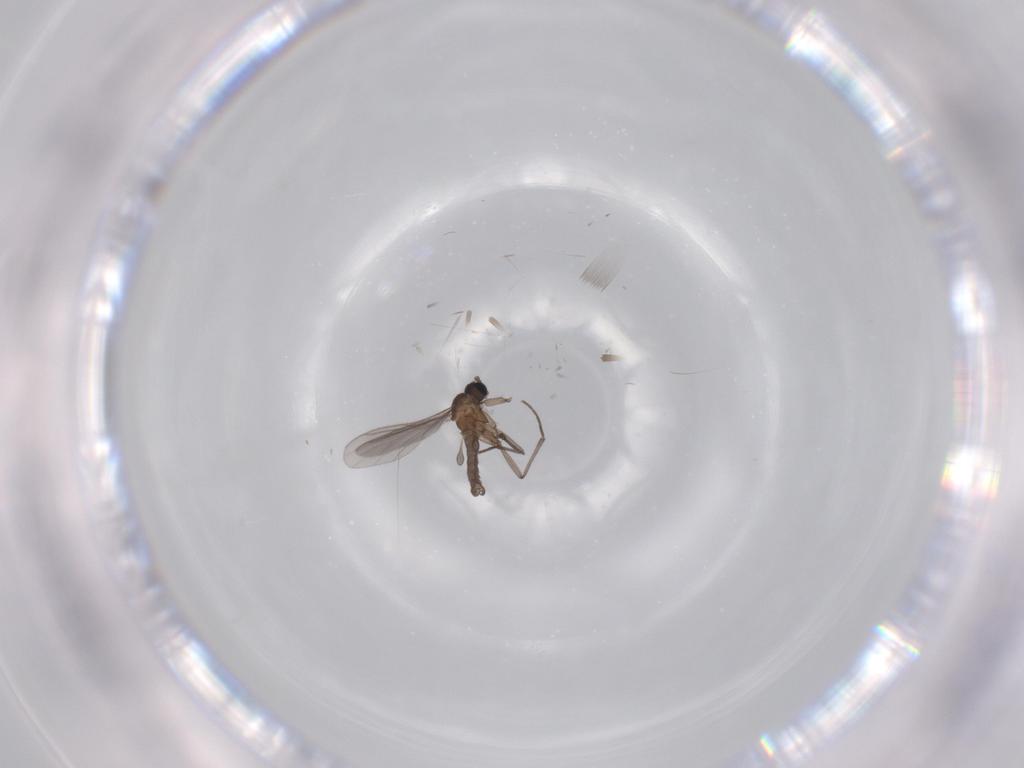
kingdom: Animalia
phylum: Arthropoda
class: Insecta
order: Diptera
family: Sciaridae
